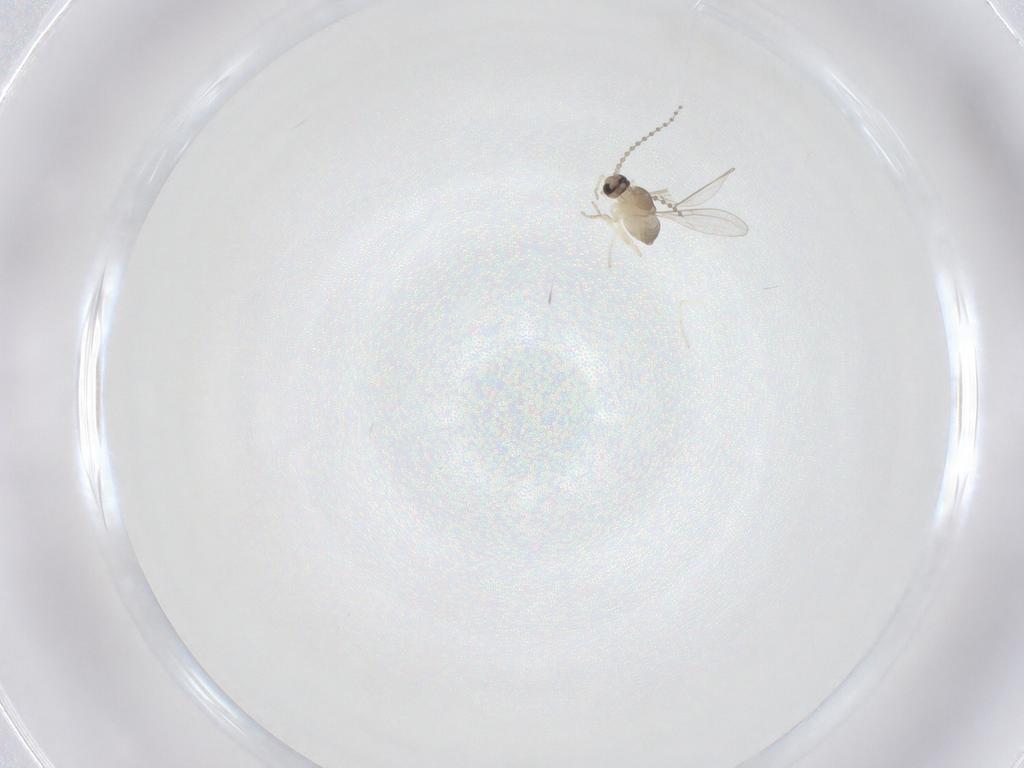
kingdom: Animalia
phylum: Arthropoda
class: Insecta
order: Diptera
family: Cecidomyiidae
